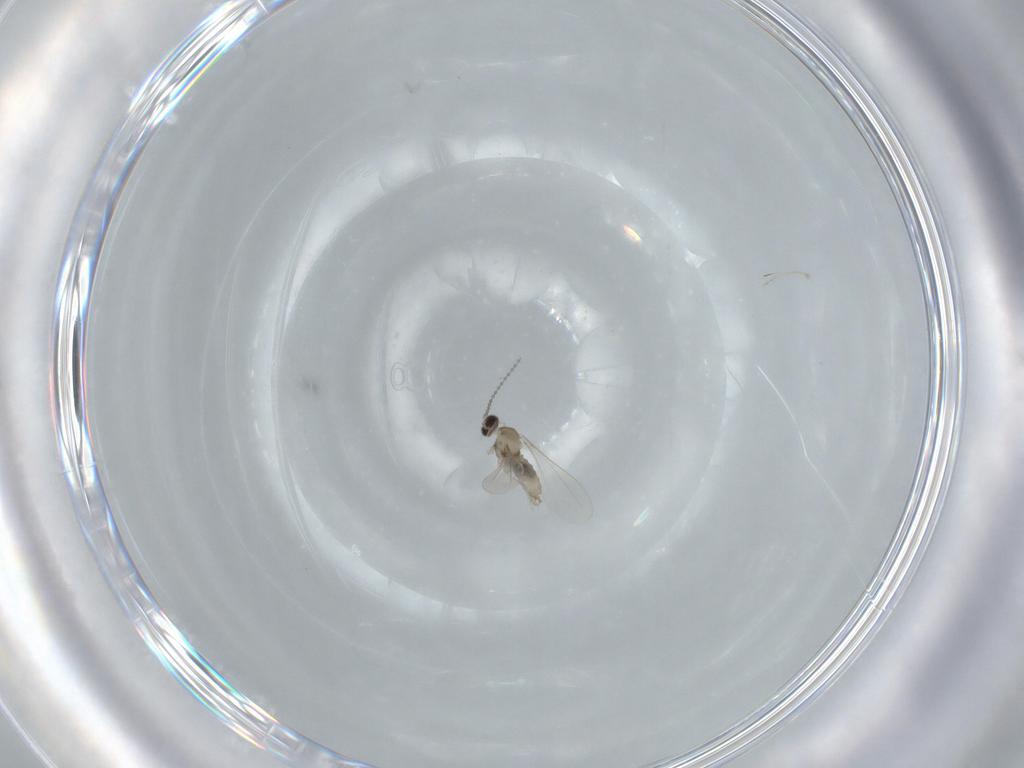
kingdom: Animalia
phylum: Arthropoda
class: Insecta
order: Diptera
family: Cecidomyiidae
